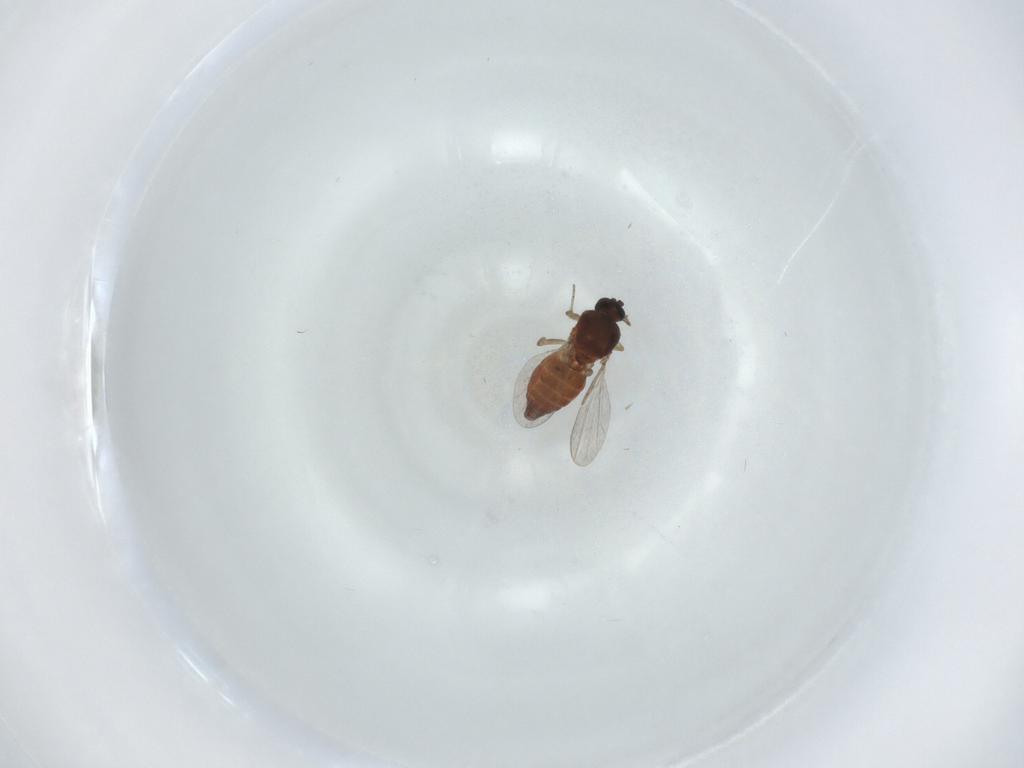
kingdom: Animalia
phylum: Arthropoda
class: Insecta
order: Diptera
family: Ceratopogonidae
